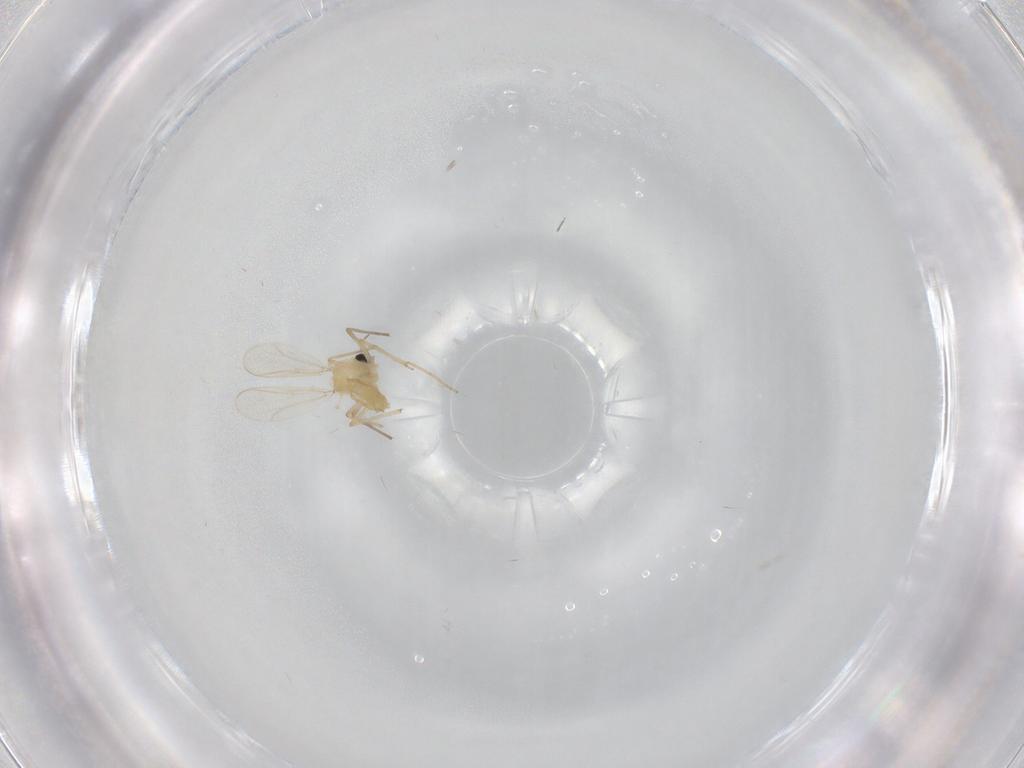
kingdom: Animalia
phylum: Arthropoda
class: Insecta
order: Diptera
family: Chironomidae
